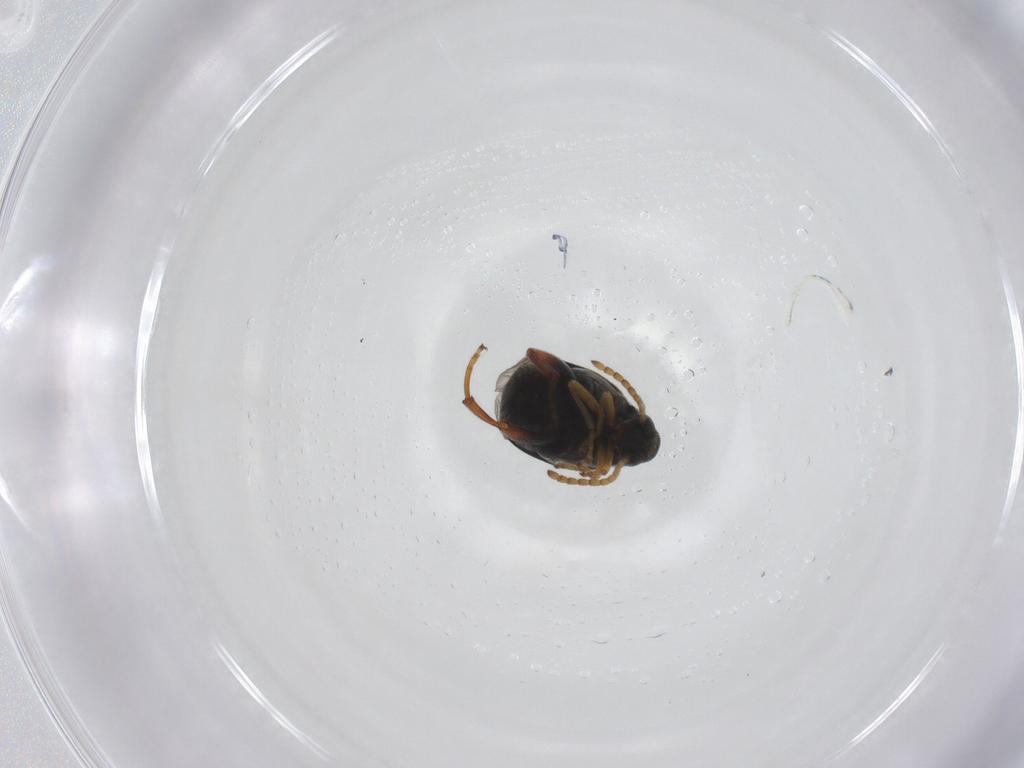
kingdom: Animalia
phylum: Arthropoda
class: Insecta
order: Coleoptera
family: Chrysomelidae
